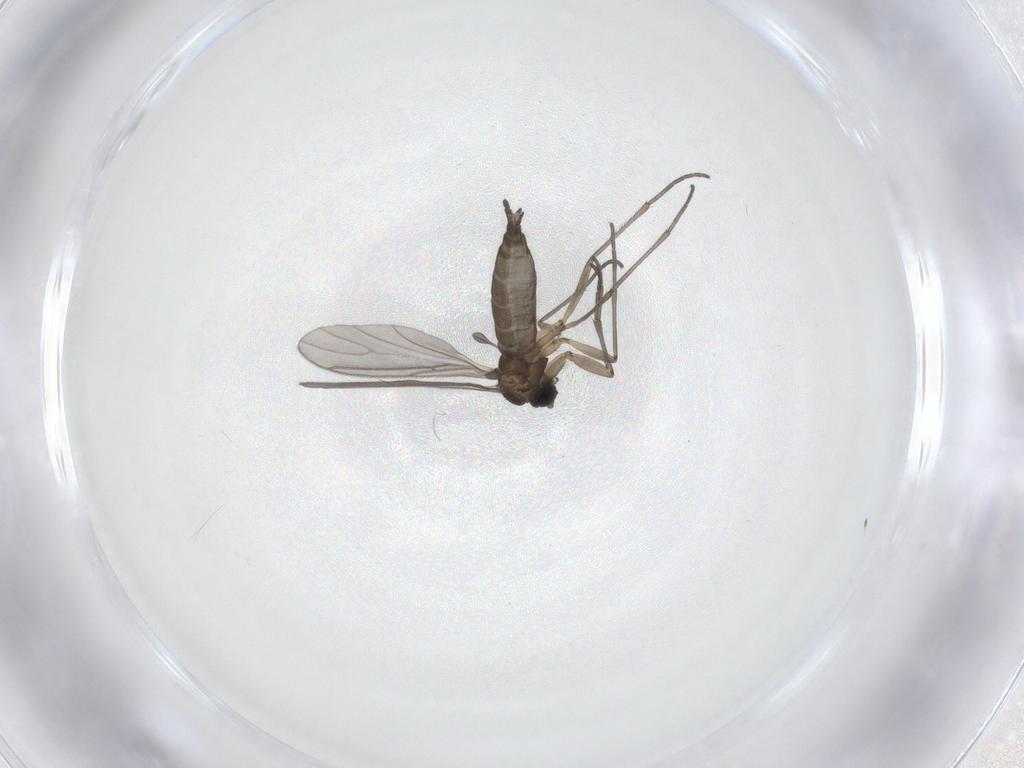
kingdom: Animalia
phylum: Arthropoda
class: Insecta
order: Diptera
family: Sciaridae
